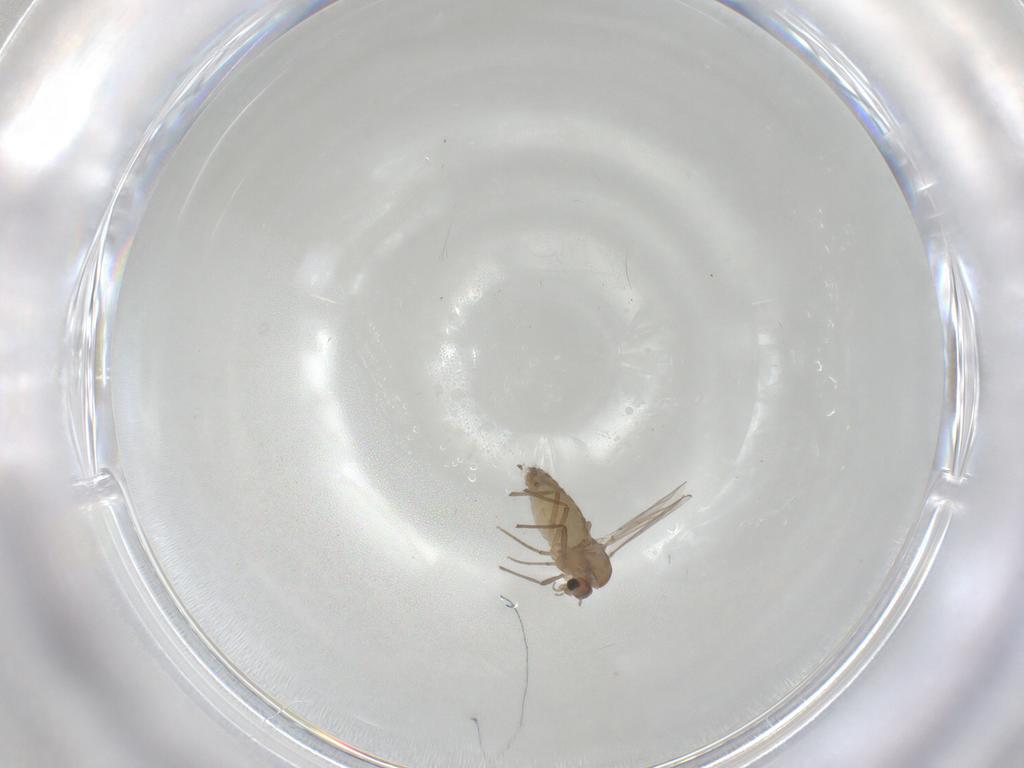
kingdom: Animalia
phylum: Arthropoda
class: Insecta
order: Diptera
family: Chironomidae
